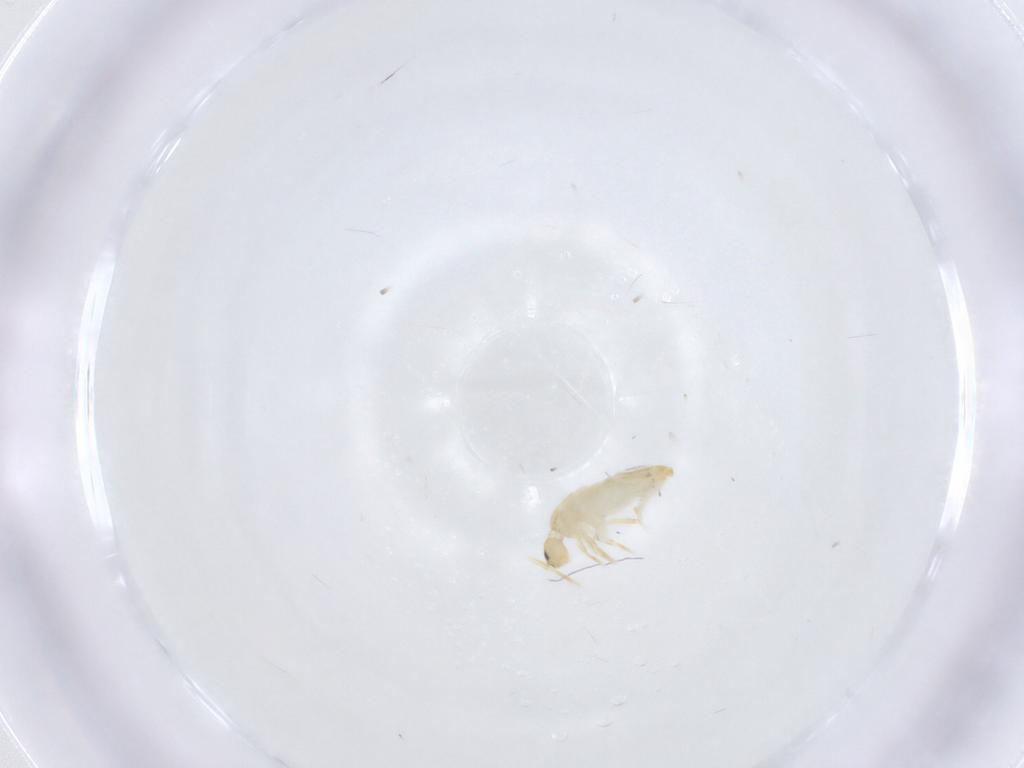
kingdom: Animalia
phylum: Arthropoda
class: Collembola
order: Entomobryomorpha
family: Entomobryidae
